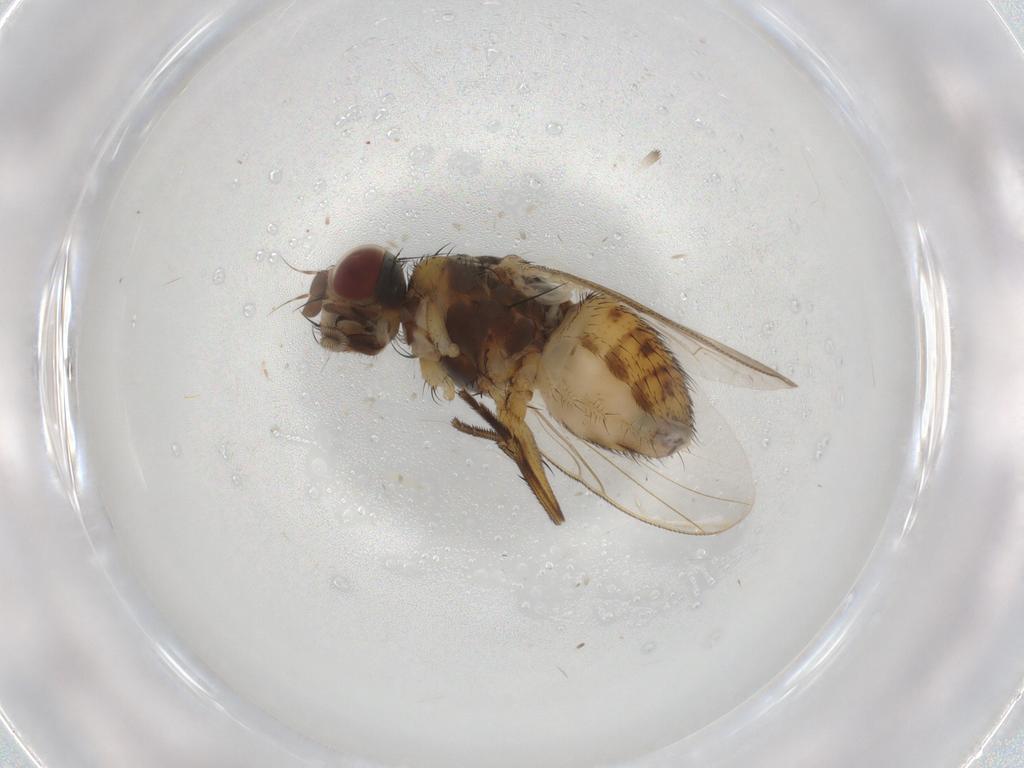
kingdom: Animalia
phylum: Arthropoda
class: Insecta
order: Diptera
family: Muscidae
